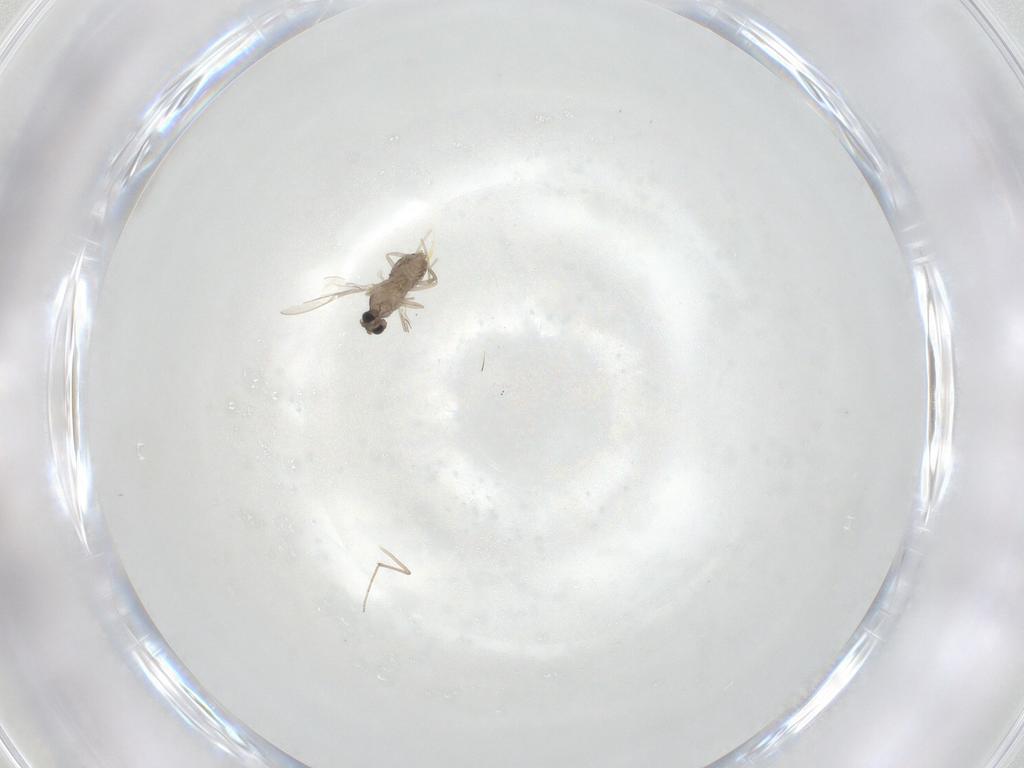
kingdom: Animalia
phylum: Arthropoda
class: Insecta
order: Diptera
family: Cecidomyiidae
